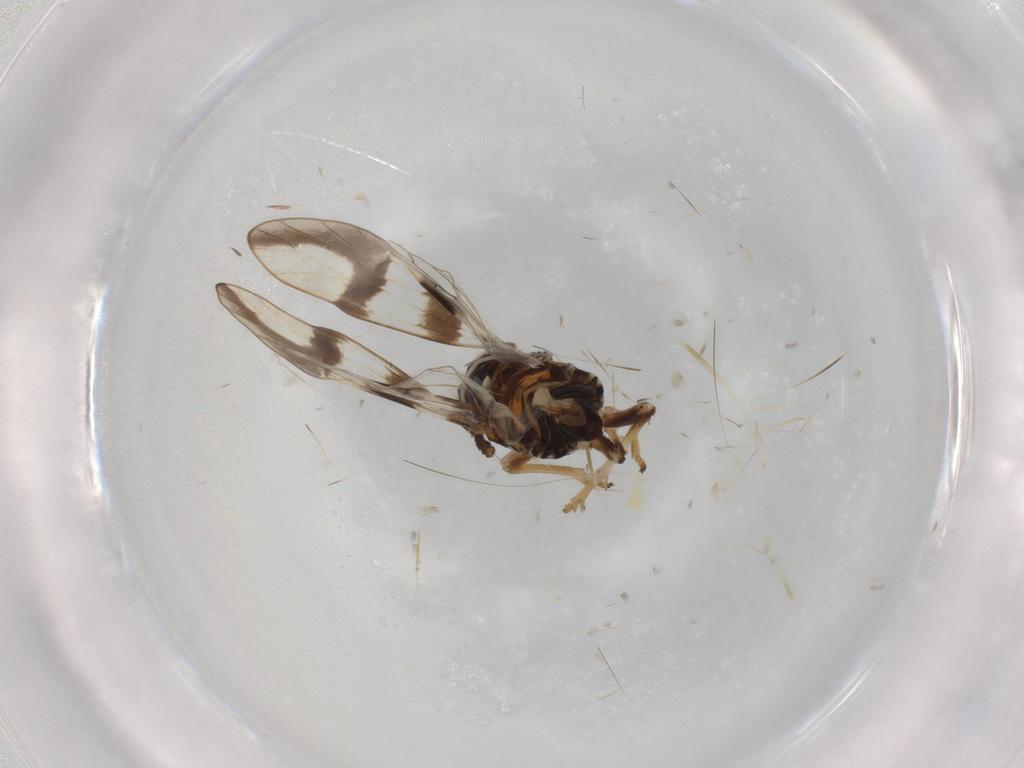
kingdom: Animalia
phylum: Arthropoda
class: Insecta
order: Hemiptera
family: Delphacidae
